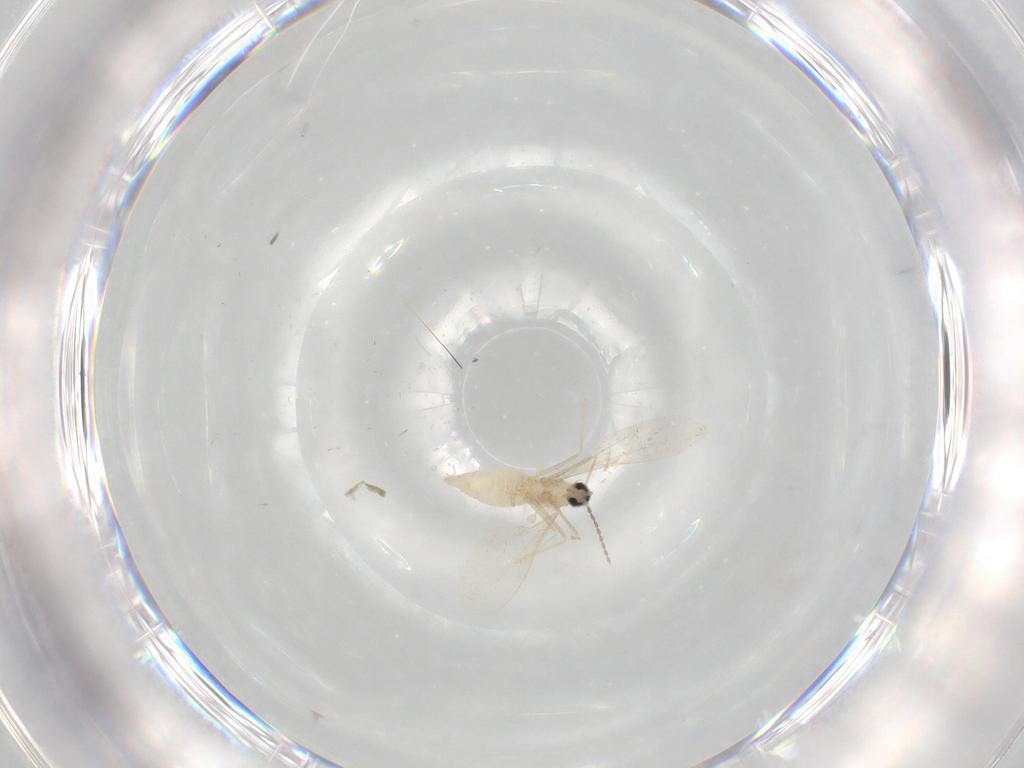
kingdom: Animalia
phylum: Arthropoda
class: Insecta
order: Diptera
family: Cecidomyiidae
